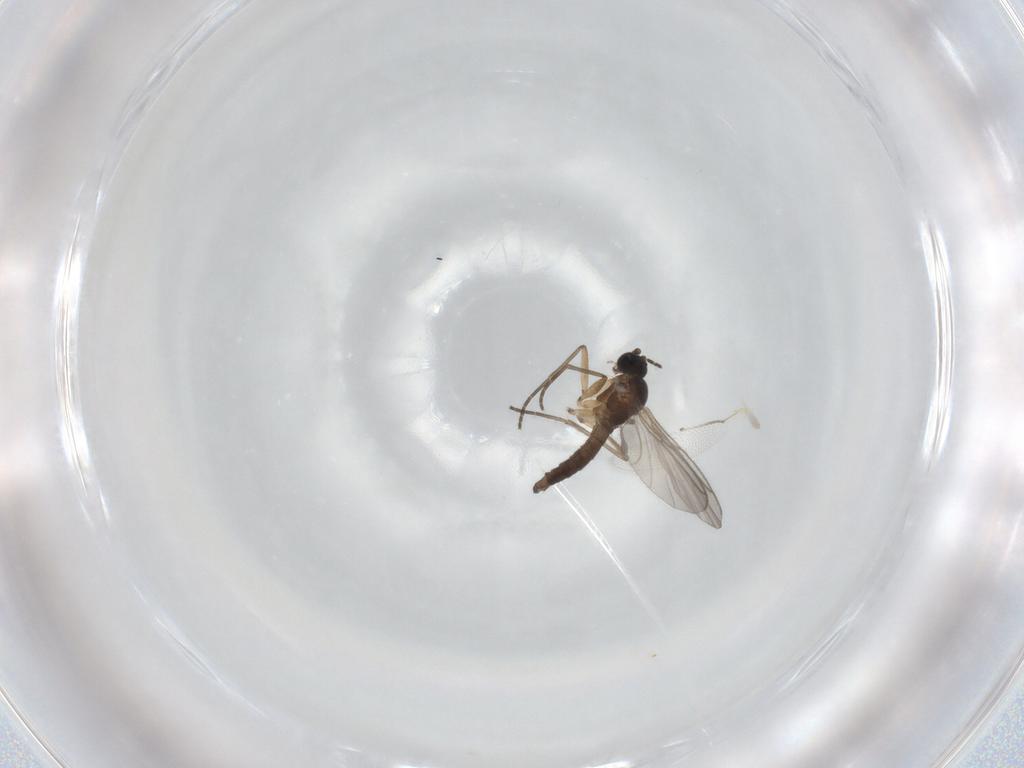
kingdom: Animalia
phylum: Arthropoda
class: Insecta
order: Diptera
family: Sciaridae
